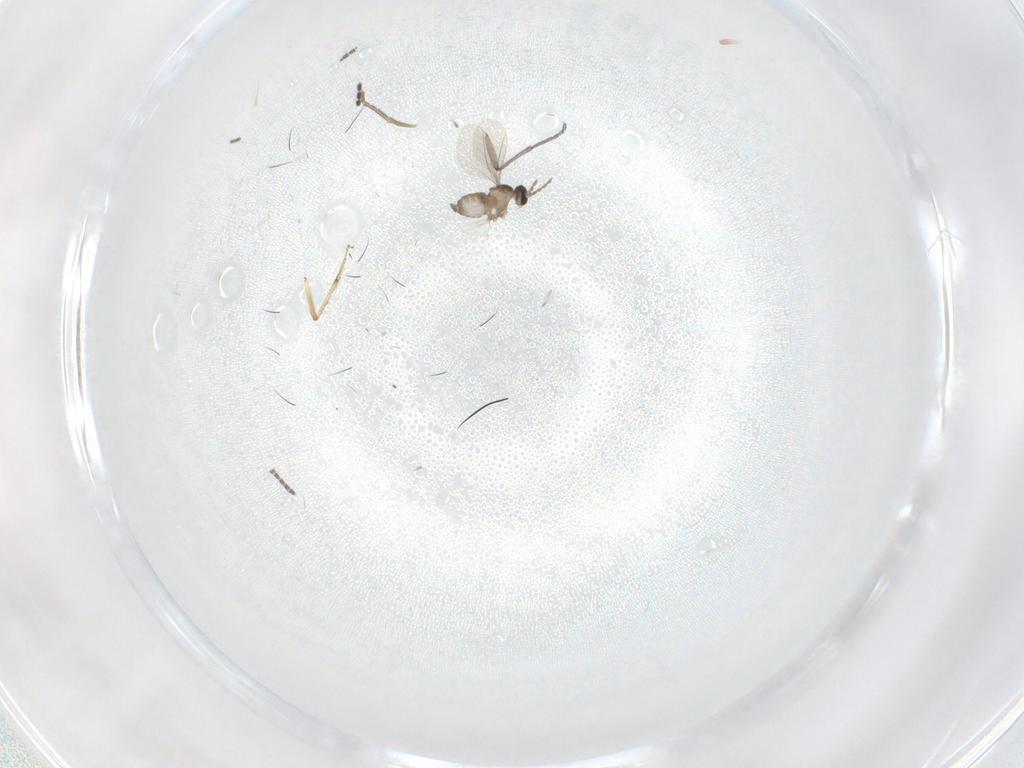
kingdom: Animalia
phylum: Arthropoda
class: Insecta
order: Diptera
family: Sciaridae
